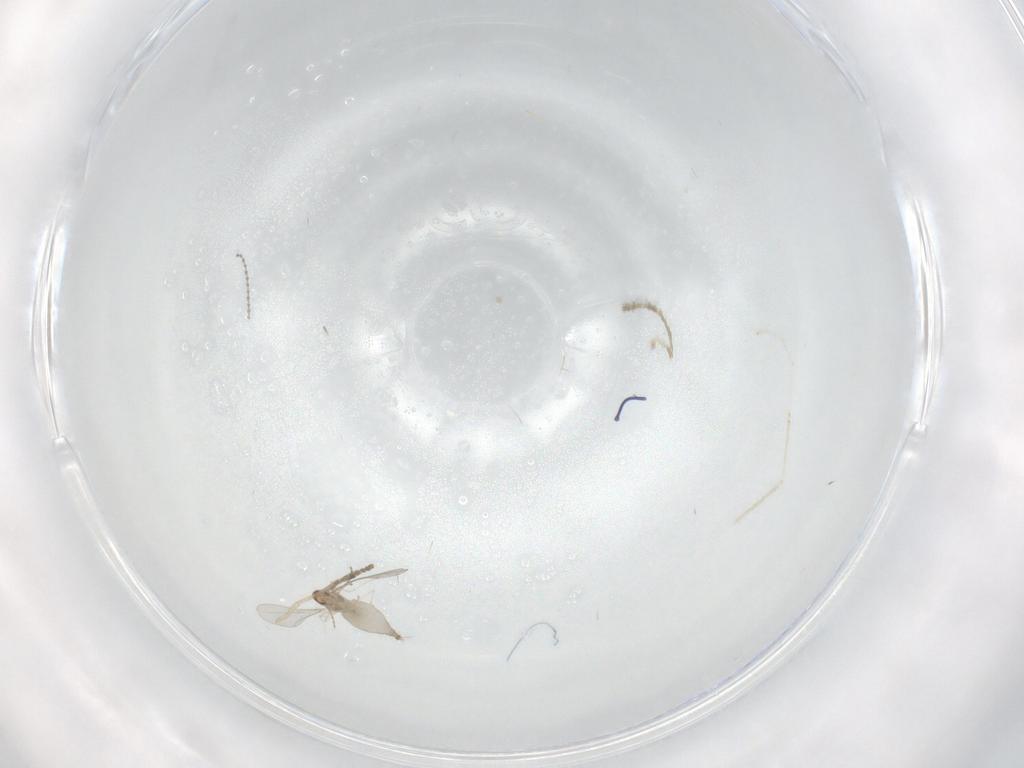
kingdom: Animalia
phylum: Arthropoda
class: Insecta
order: Diptera
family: Cecidomyiidae
